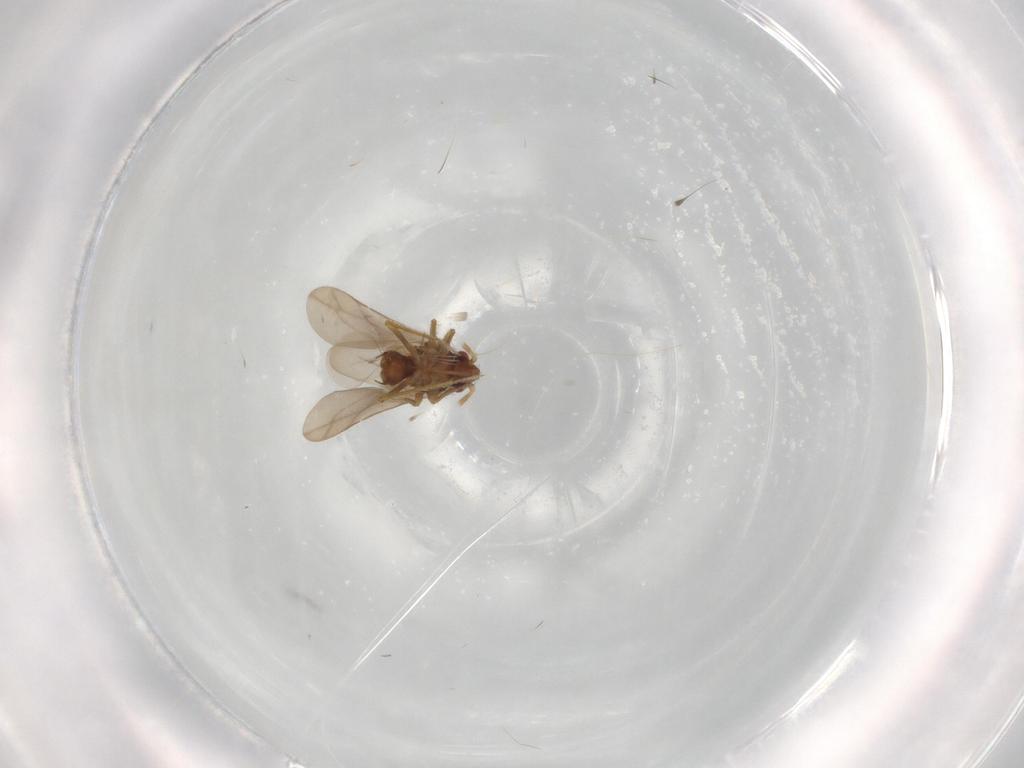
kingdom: Animalia
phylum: Arthropoda
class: Insecta
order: Hemiptera
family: Ceratocombidae
